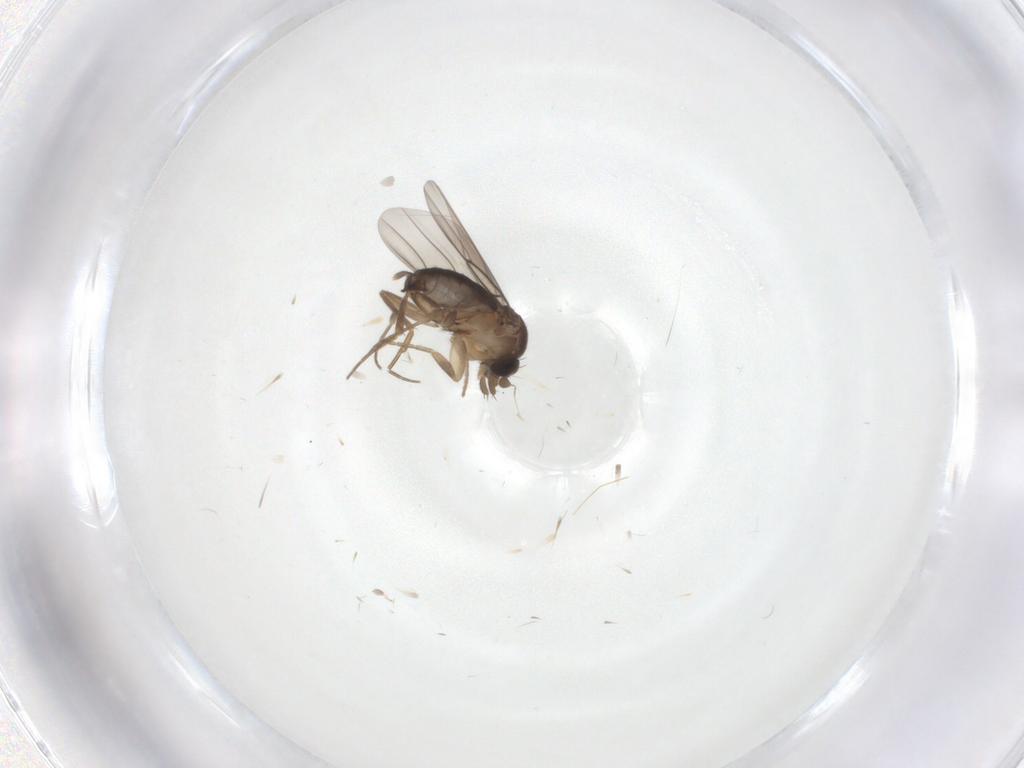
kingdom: Animalia
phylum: Arthropoda
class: Insecta
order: Diptera
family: Phoridae
